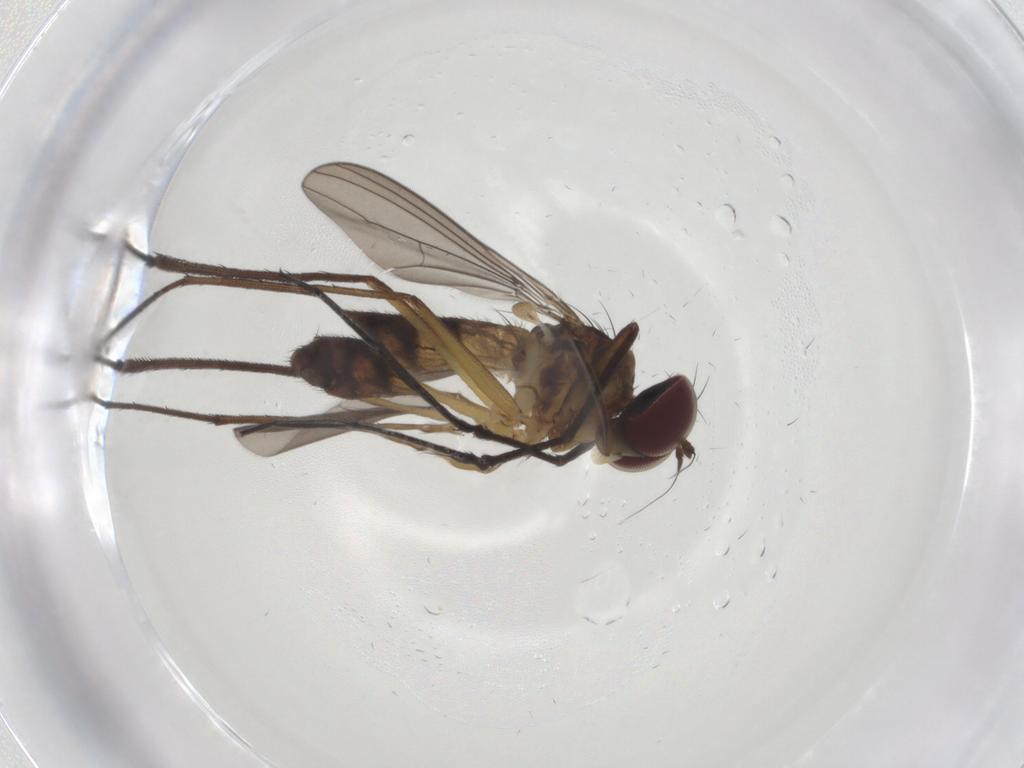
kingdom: Animalia
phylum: Arthropoda
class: Insecta
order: Diptera
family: Dolichopodidae
